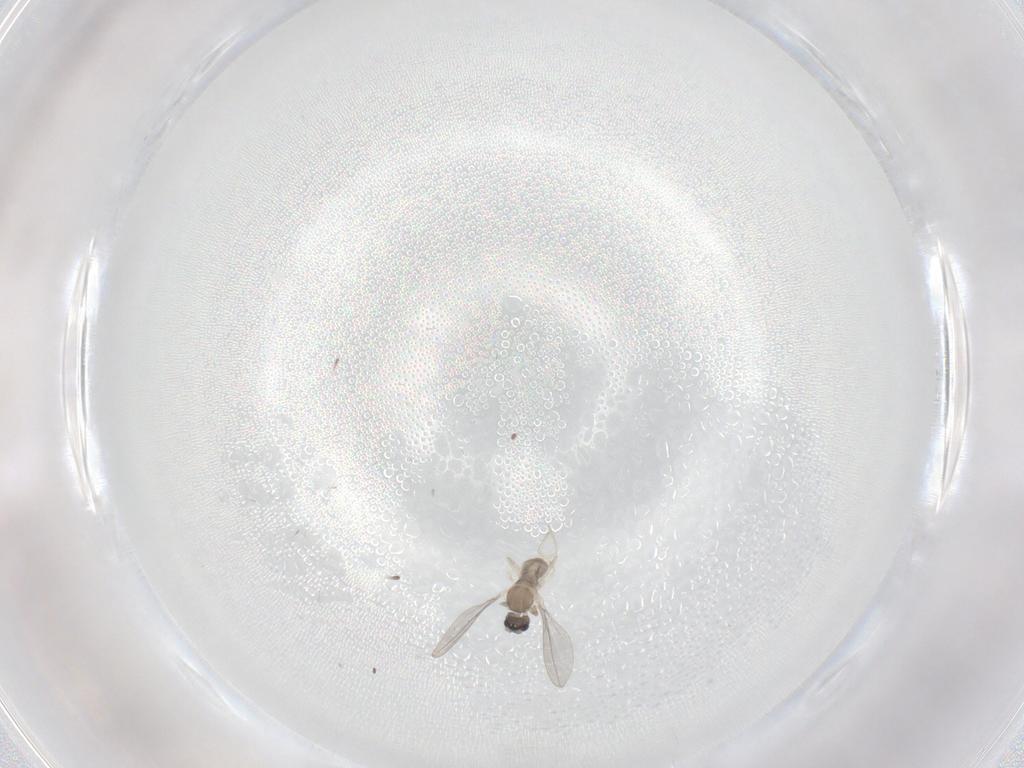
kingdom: Animalia
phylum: Arthropoda
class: Insecta
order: Diptera
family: Cecidomyiidae
